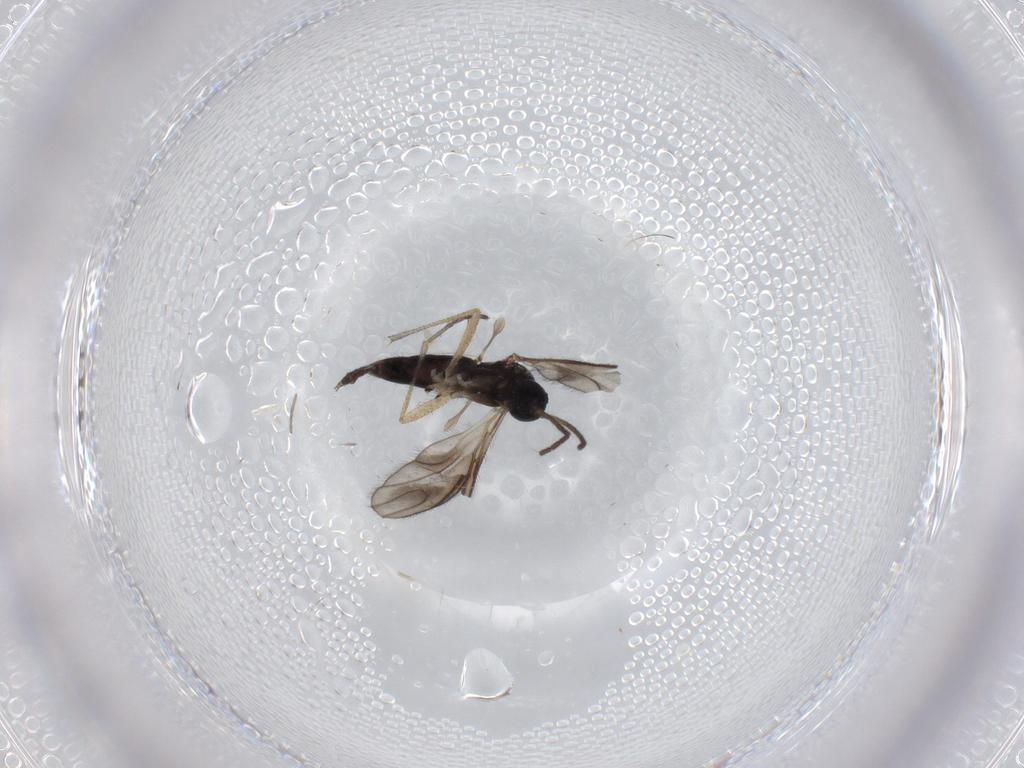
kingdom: Animalia
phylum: Arthropoda
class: Insecta
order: Diptera
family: Sciaridae
